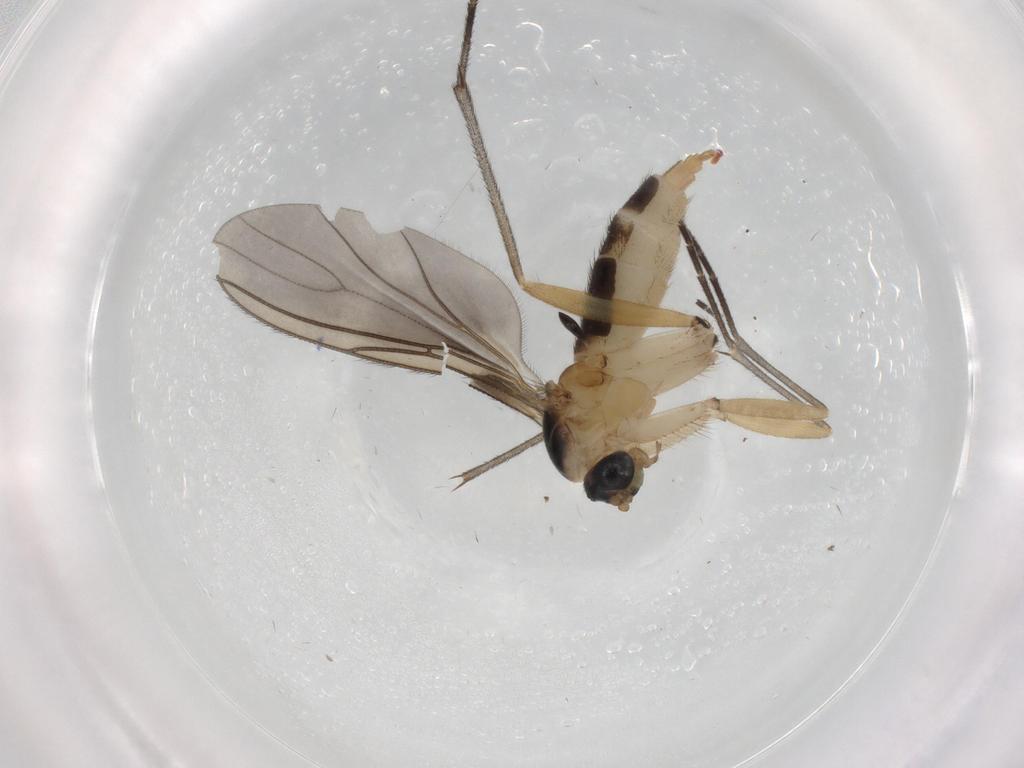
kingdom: Animalia
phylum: Arthropoda
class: Insecta
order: Diptera
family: Sciaridae
